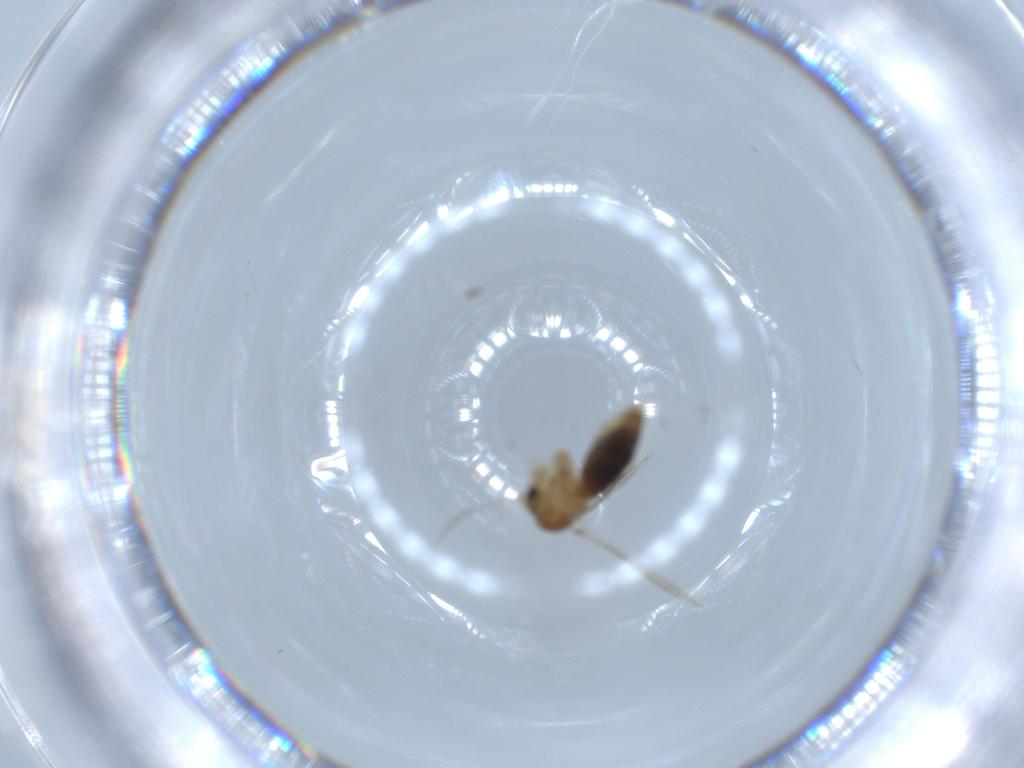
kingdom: Animalia
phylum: Arthropoda
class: Insecta
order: Diptera
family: Psychodidae
